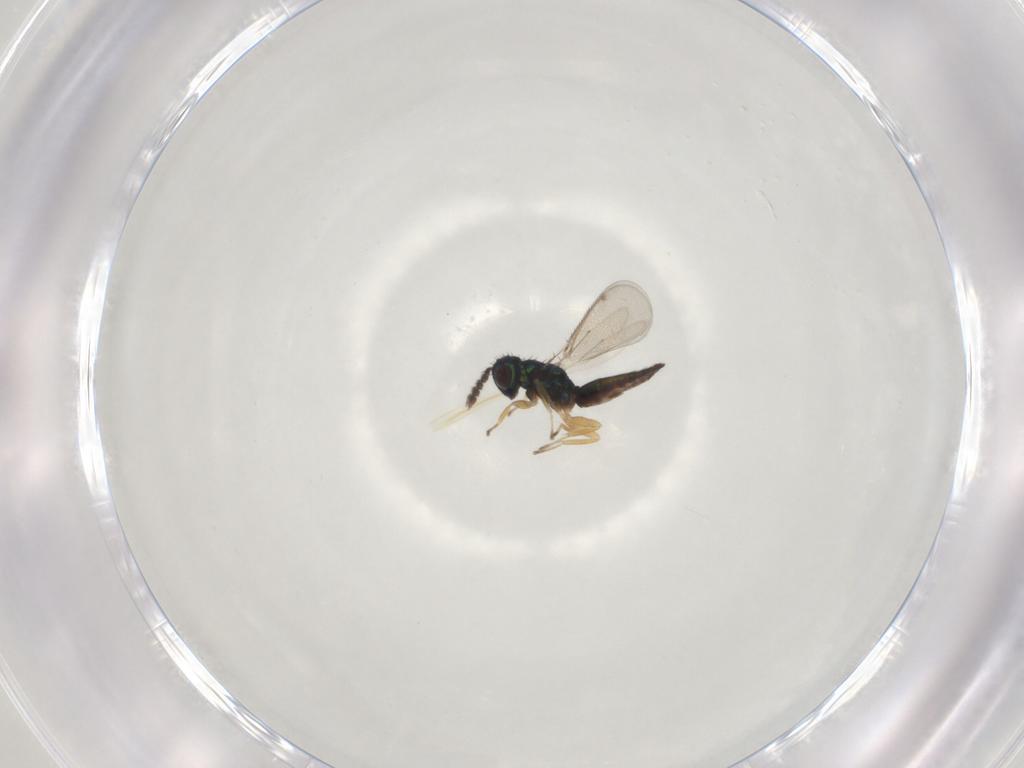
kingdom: Animalia
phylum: Arthropoda
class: Insecta
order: Hymenoptera
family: Eulophidae
